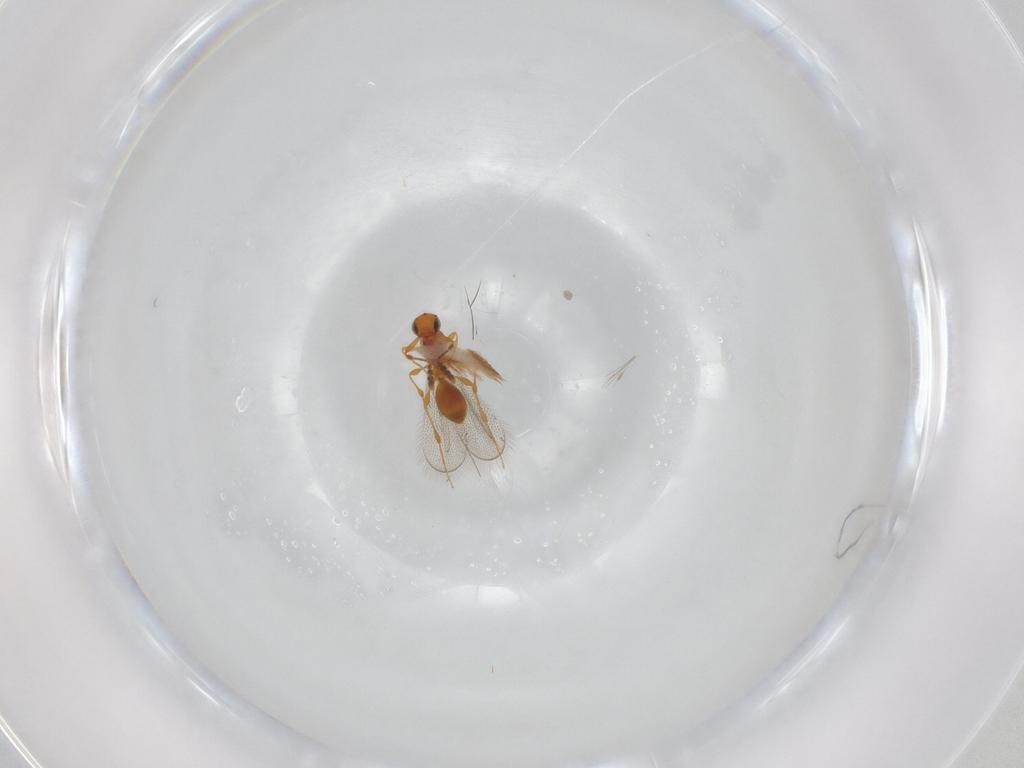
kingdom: Animalia
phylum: Arthropoda
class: Insecta
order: Hymenoptera
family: Platygastridae
